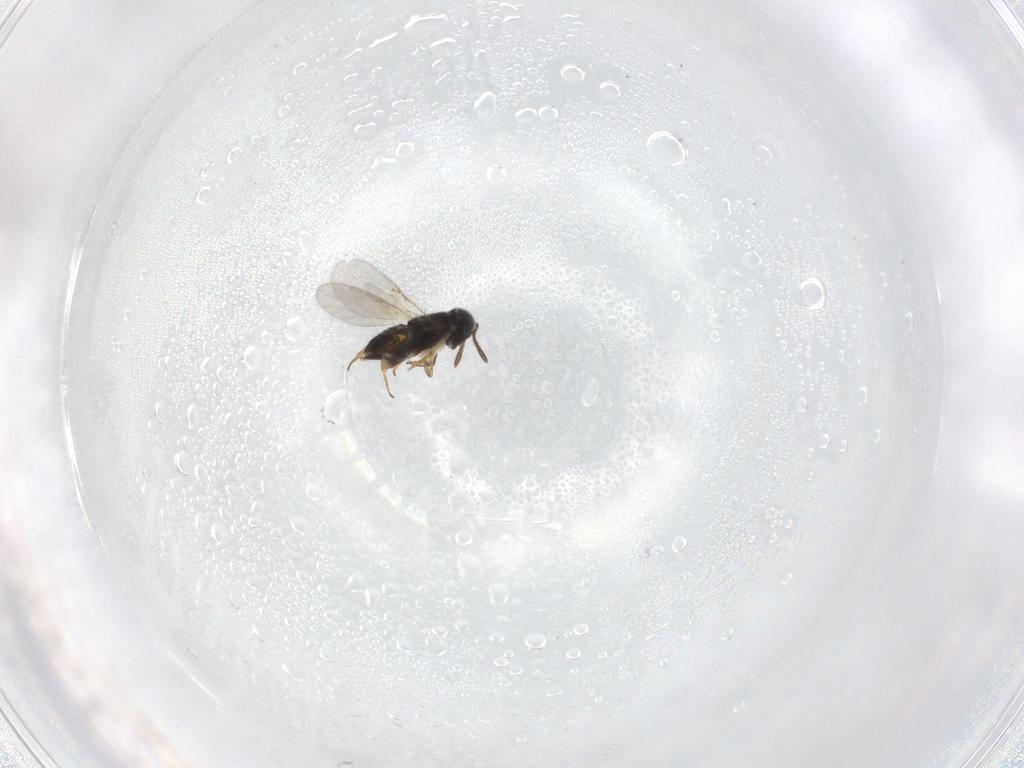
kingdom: Animalia
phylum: Arthropoda
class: Insecta
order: Hymenoptera
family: Encyrtidae
